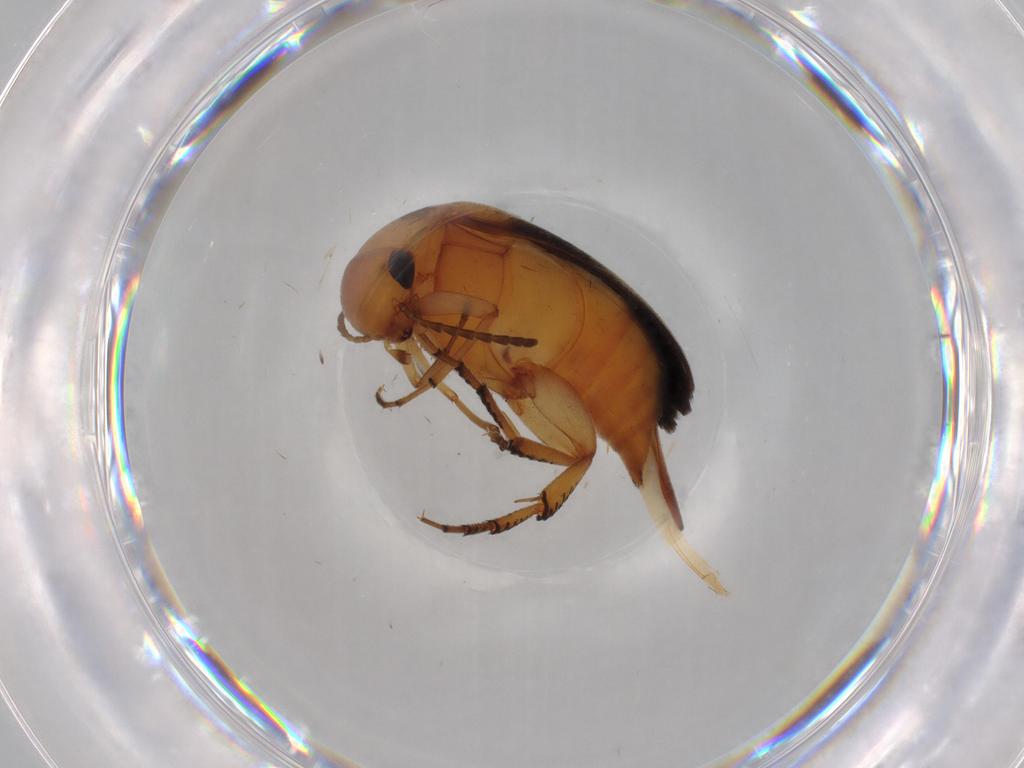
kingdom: Animalia
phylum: Arthropoda
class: Insecta
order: Coleoptera
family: Mordellidae
